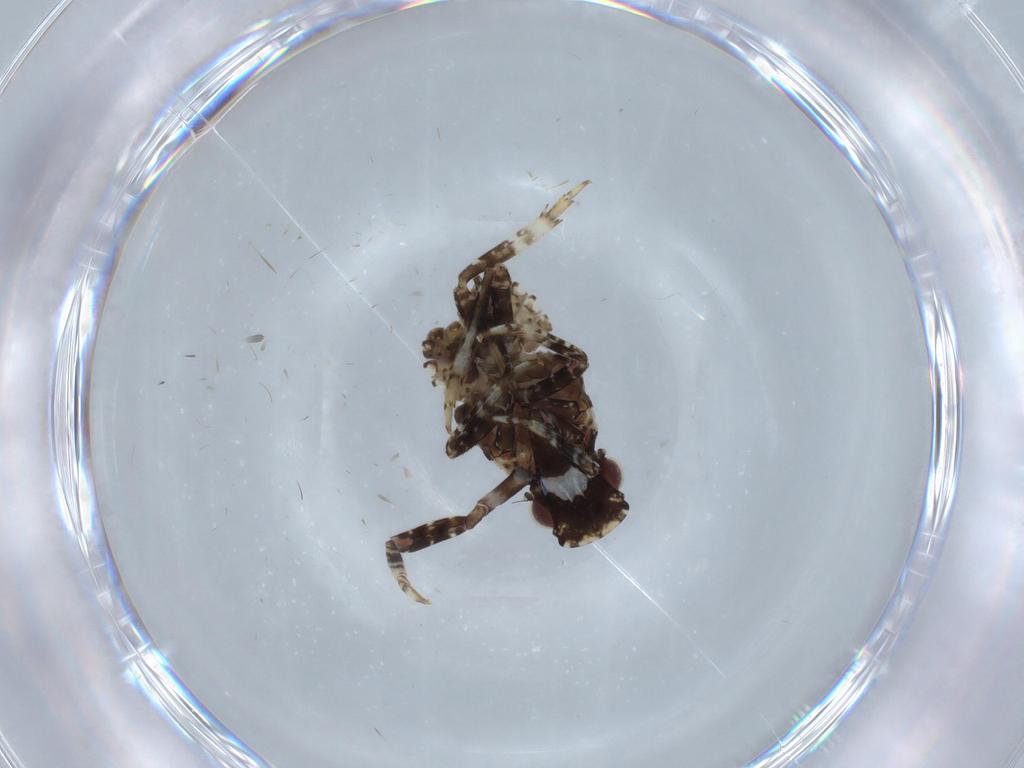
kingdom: Animalia
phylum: Arthropoda
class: Insecta
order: Hemiptera
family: Fulgoridae
